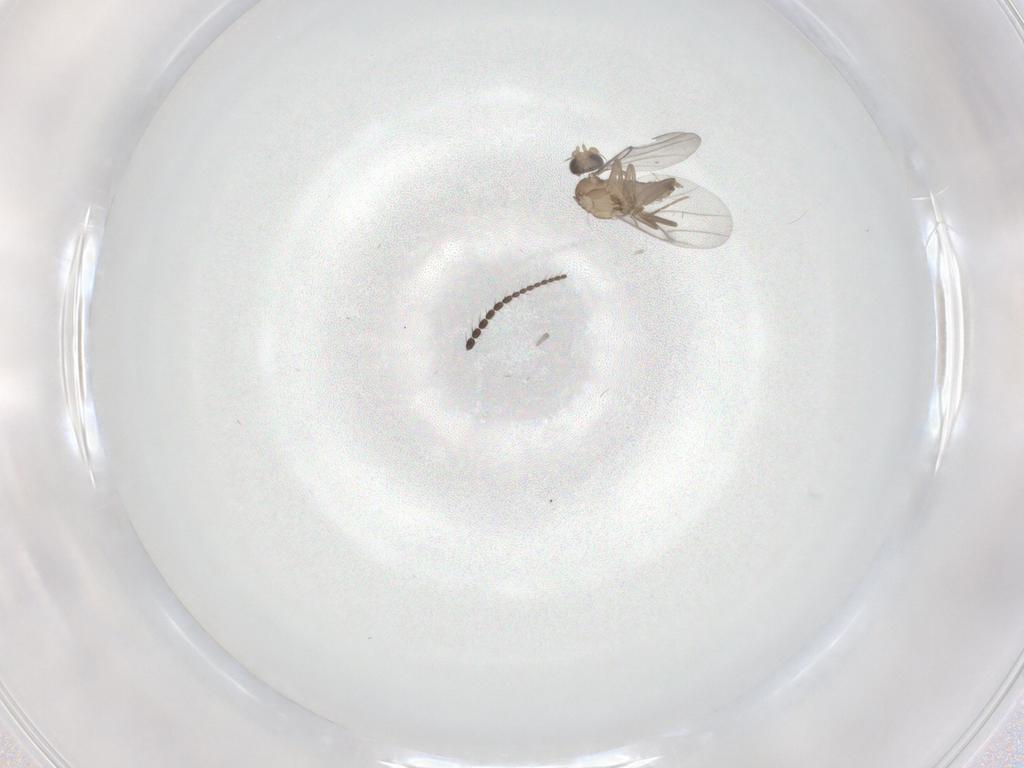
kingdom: Animalia
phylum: Arthropoda
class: Insecta
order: Diptera
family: Limoniidae
